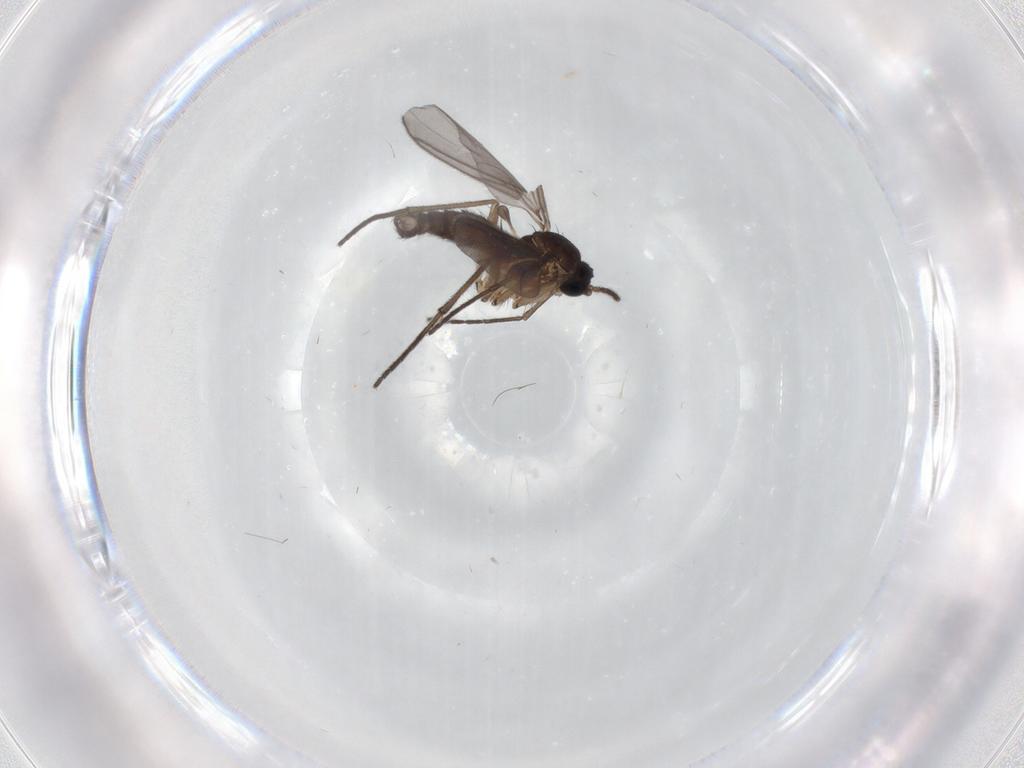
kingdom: Animalia
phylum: Arthropoda
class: Insecta
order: Diptera
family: Sciaridae
